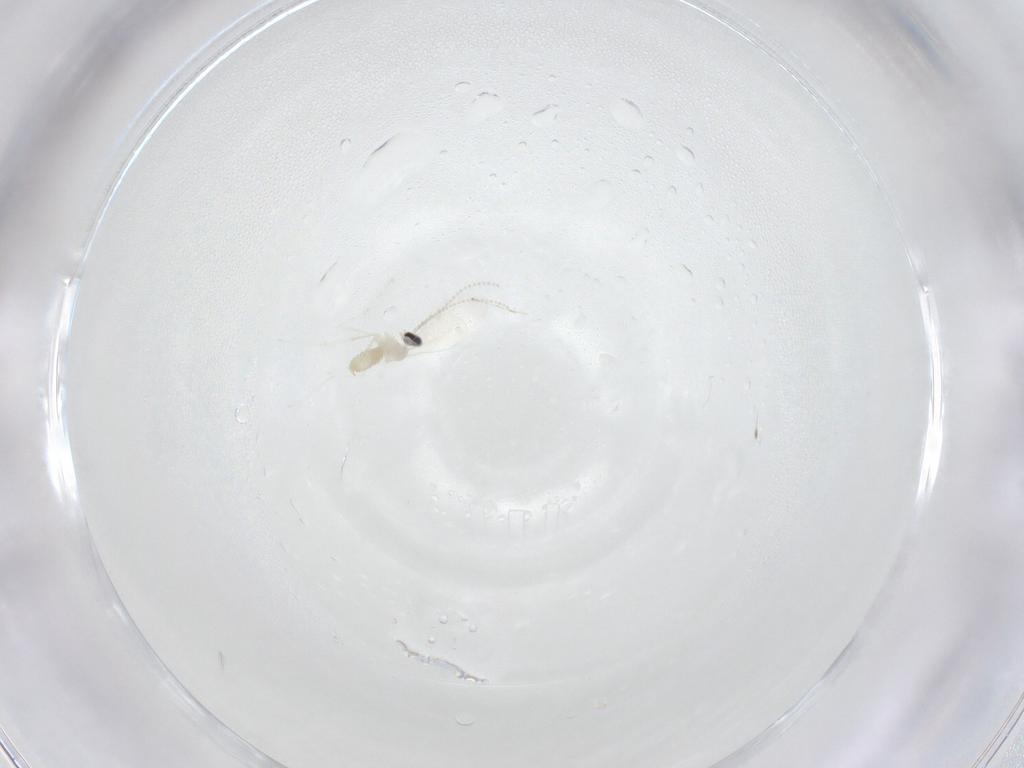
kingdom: Animalia
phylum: Arthropoda
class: Insecta
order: Diptera
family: Cecidomyiidae
